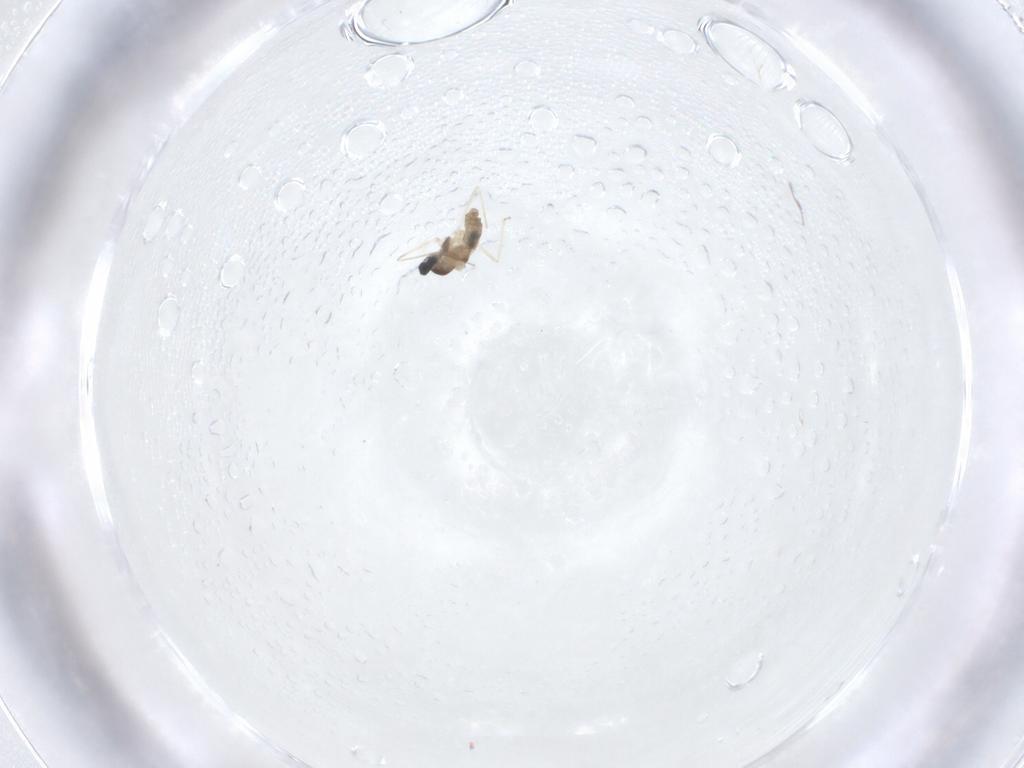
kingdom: Animalia
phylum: Arthropoda
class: Insecta
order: Diptera
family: Cecidomyiidae
